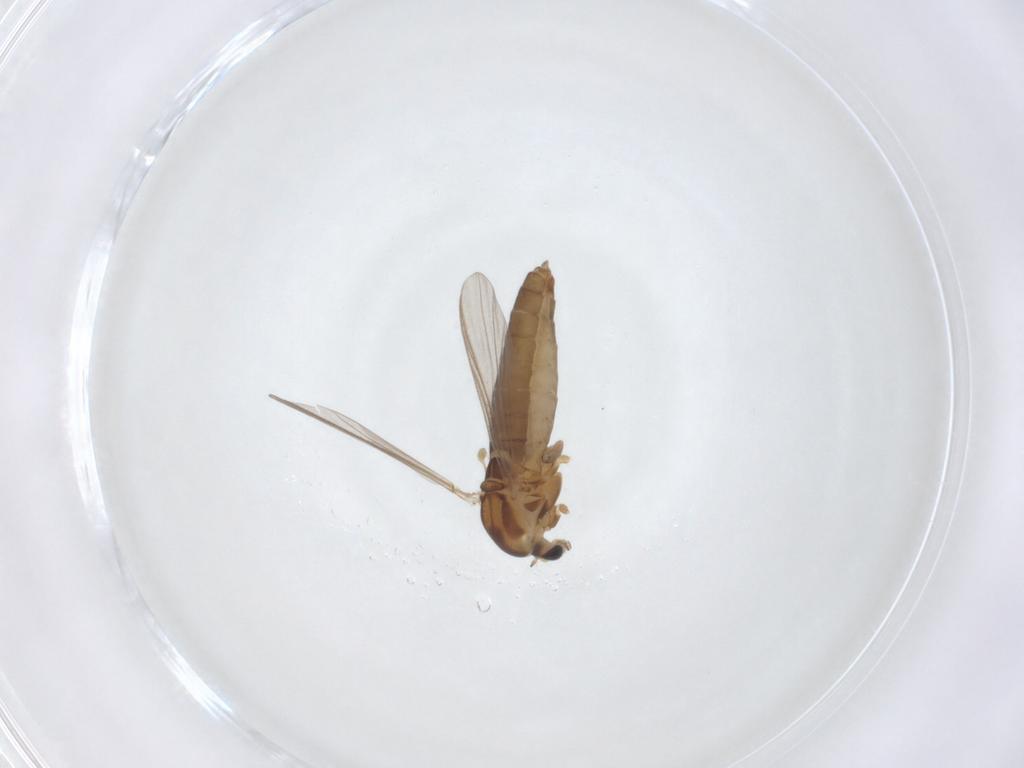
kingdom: Animalia
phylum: Arthropoda
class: Insecta
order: Diptera
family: Chironomidae
